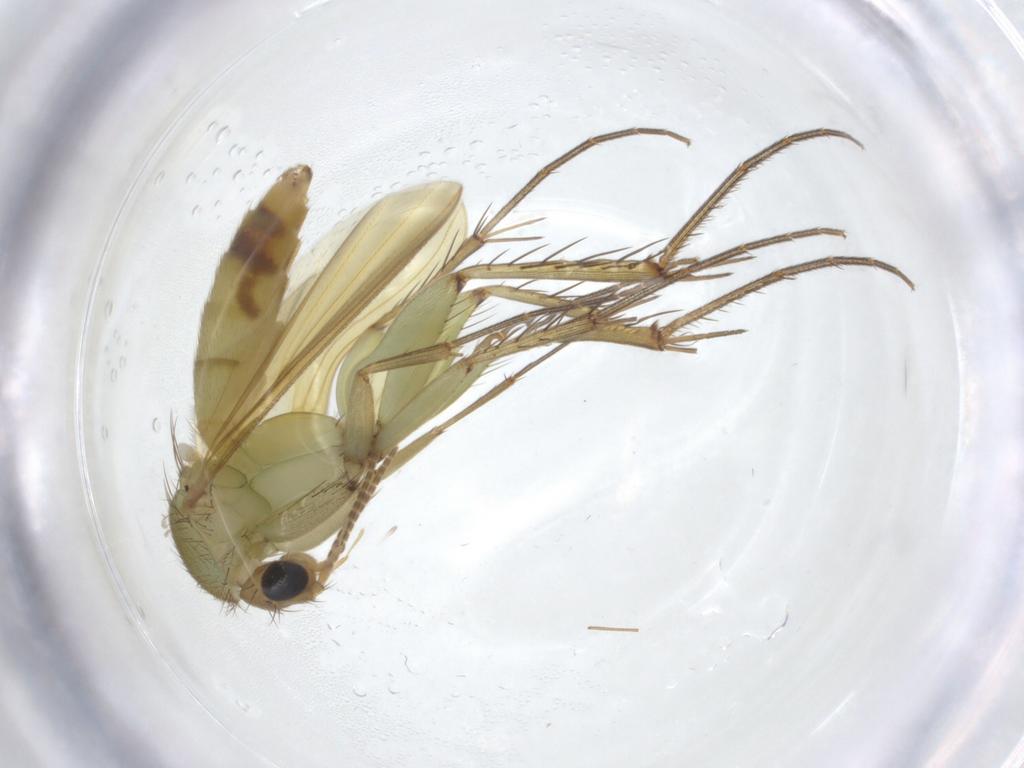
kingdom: Animalia
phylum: Arthropoda
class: Insecta
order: Diptera
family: Mycetophilidae
